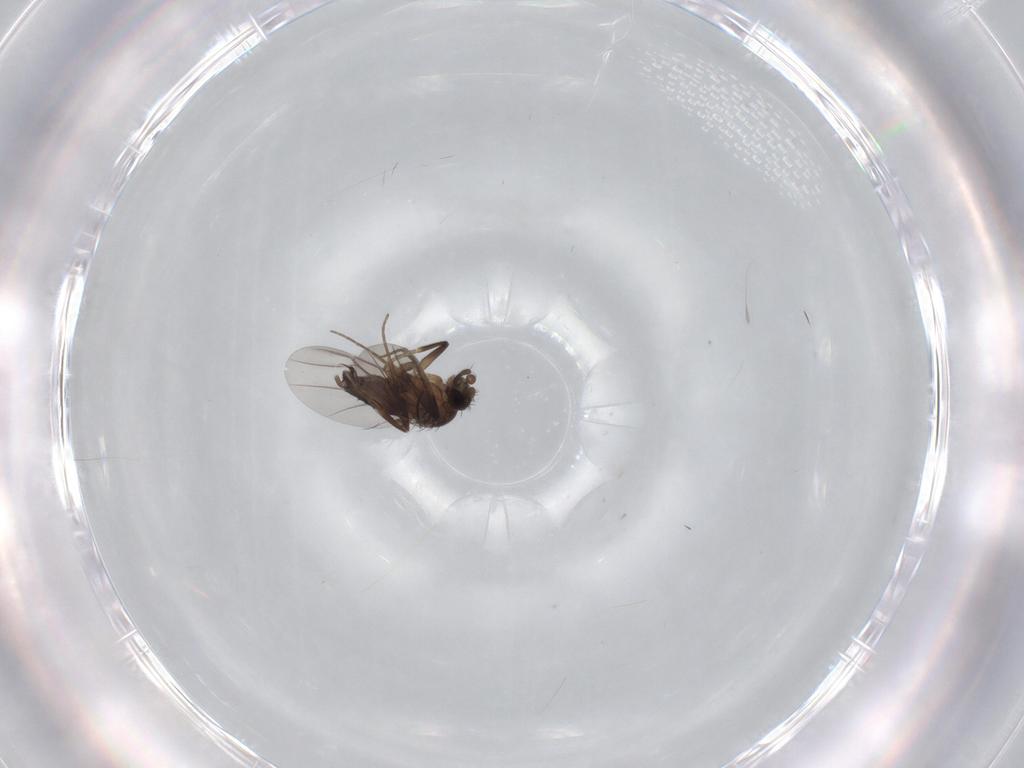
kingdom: Animalia
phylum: Arthropoda
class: Insecta
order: Diptera
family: Phoridae
